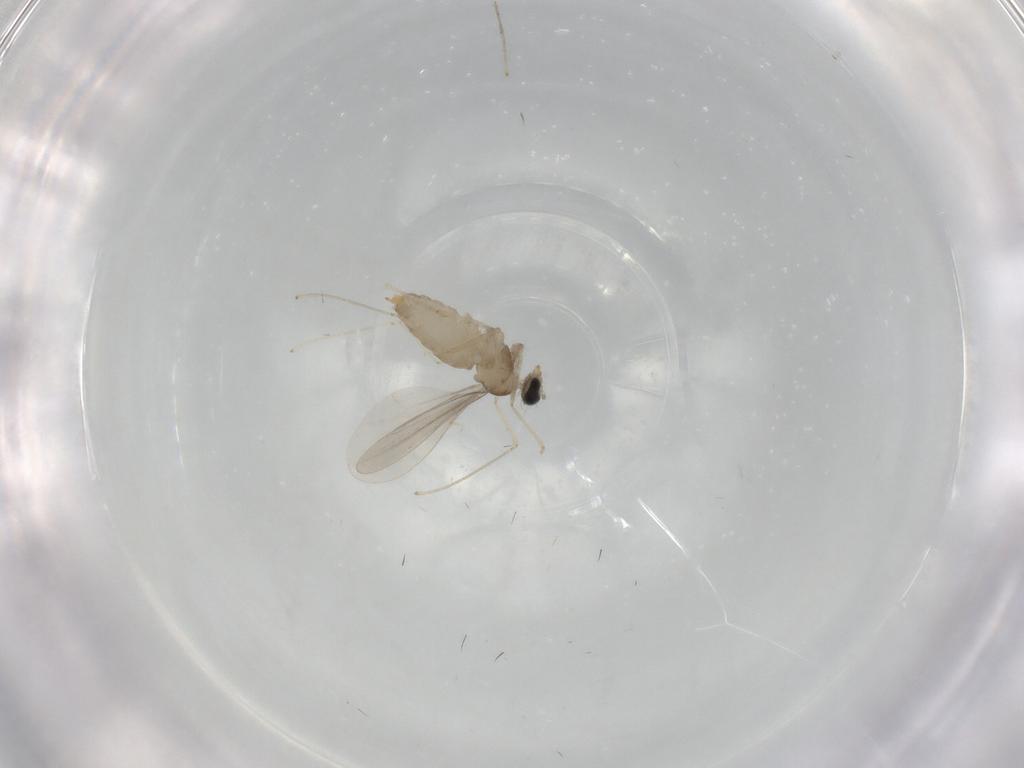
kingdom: Animalia
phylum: Arthropoda
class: Insecta
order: Diptera
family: Cecidomyiidae
